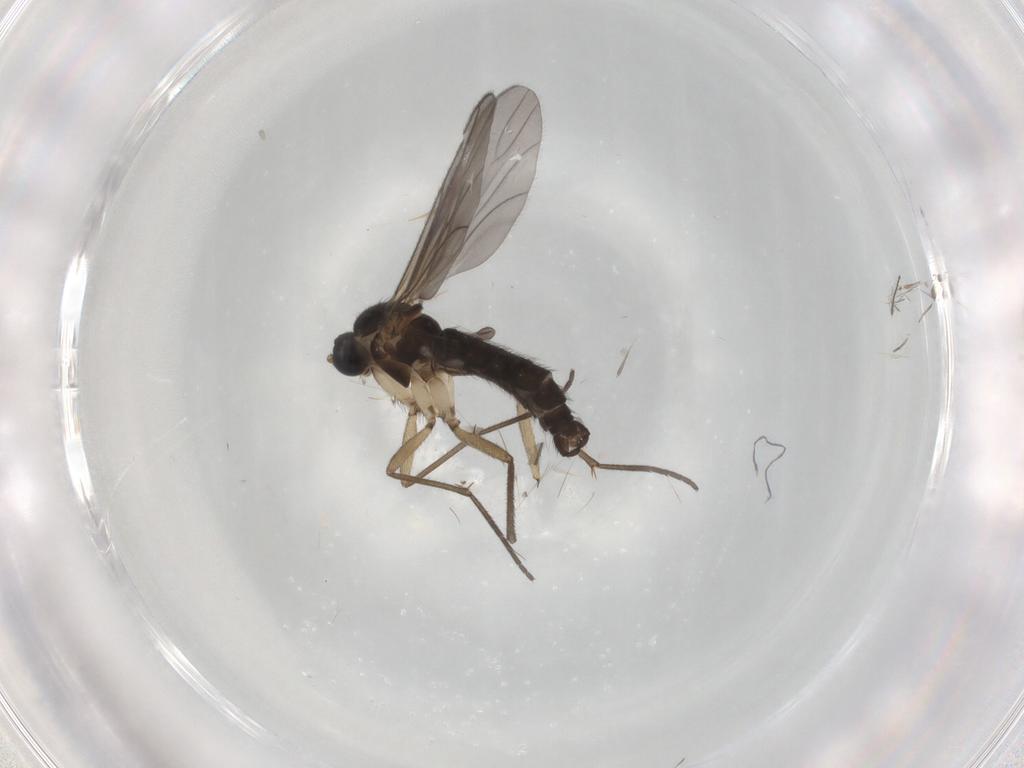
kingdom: Animalia
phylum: Arthropoda
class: Insecta
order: Diptera
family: Sciaridae
